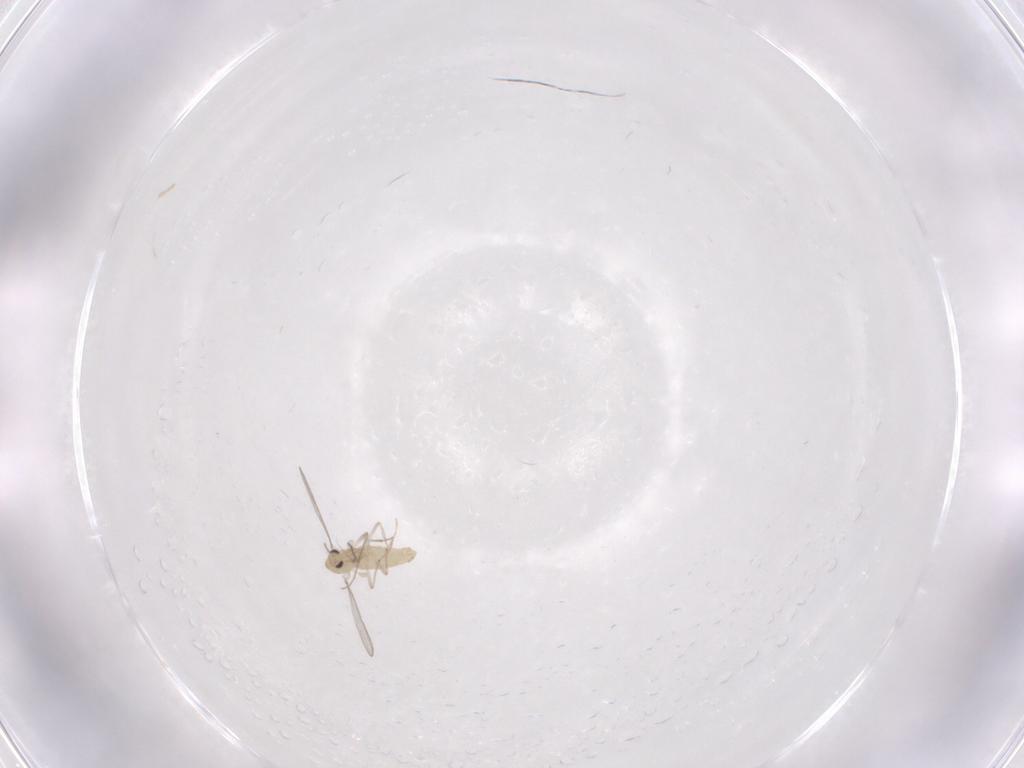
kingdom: Animalia
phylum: Arthropoda
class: Insecta
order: Diptera
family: Chironomidae
